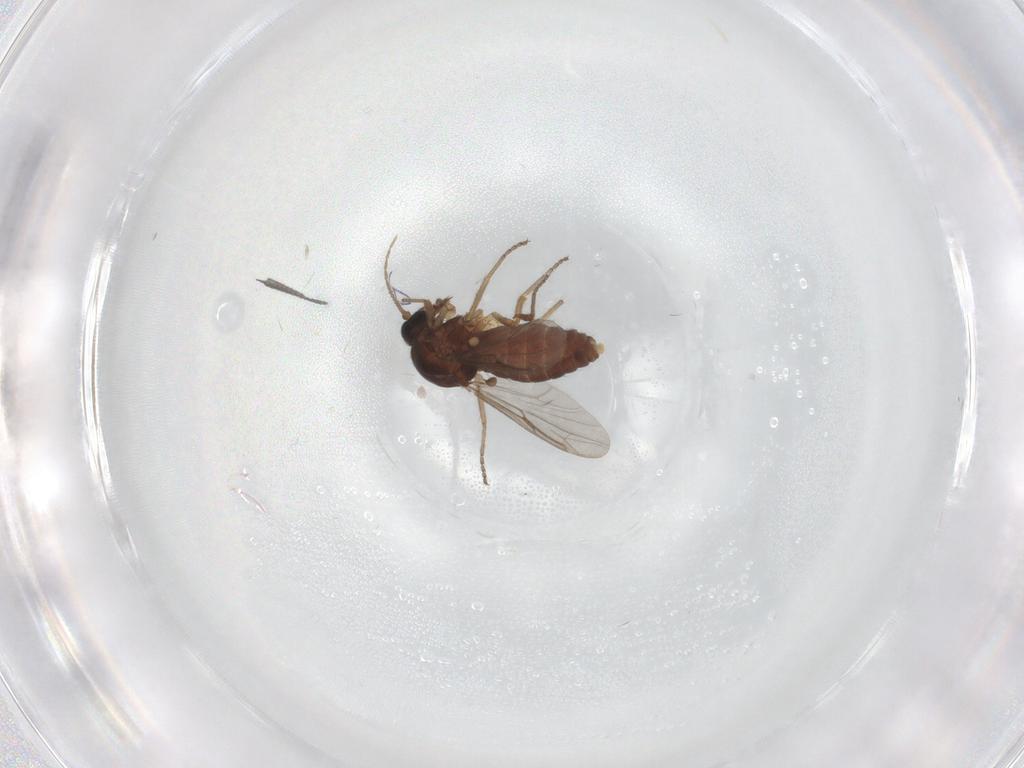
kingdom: Animalia
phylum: Arthropoda
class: Insecta
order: Diptera
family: Ceratopogonidae
